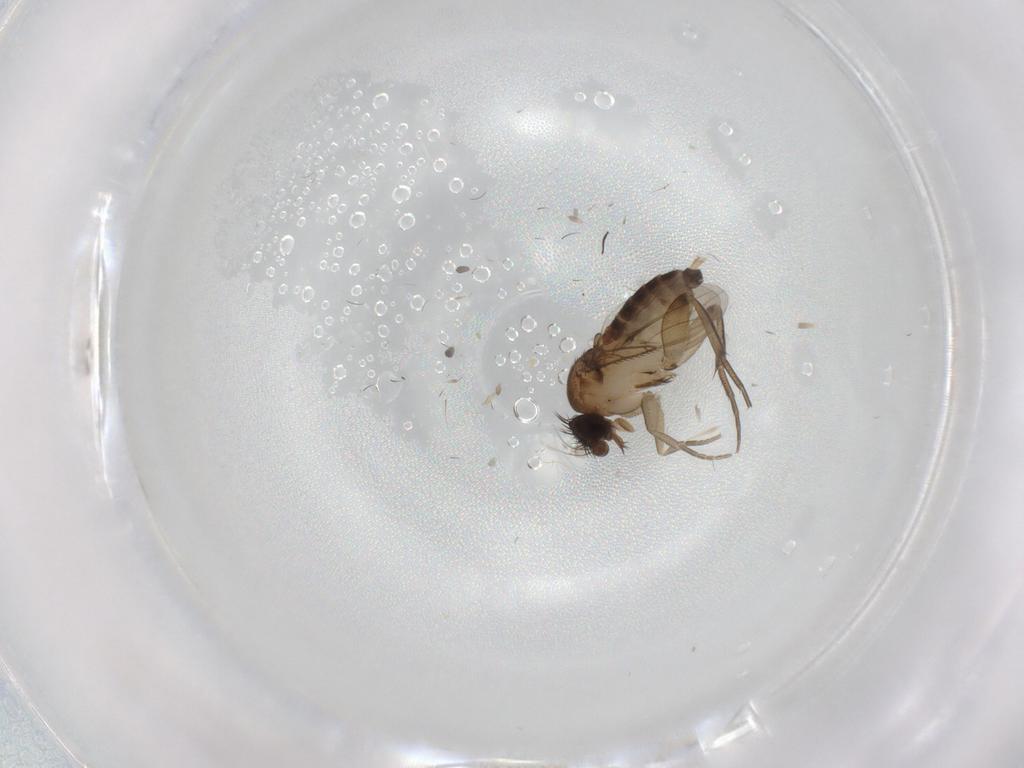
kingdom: Animalia
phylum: Arthropoda
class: Insecta
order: Diptera
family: Phoridae
